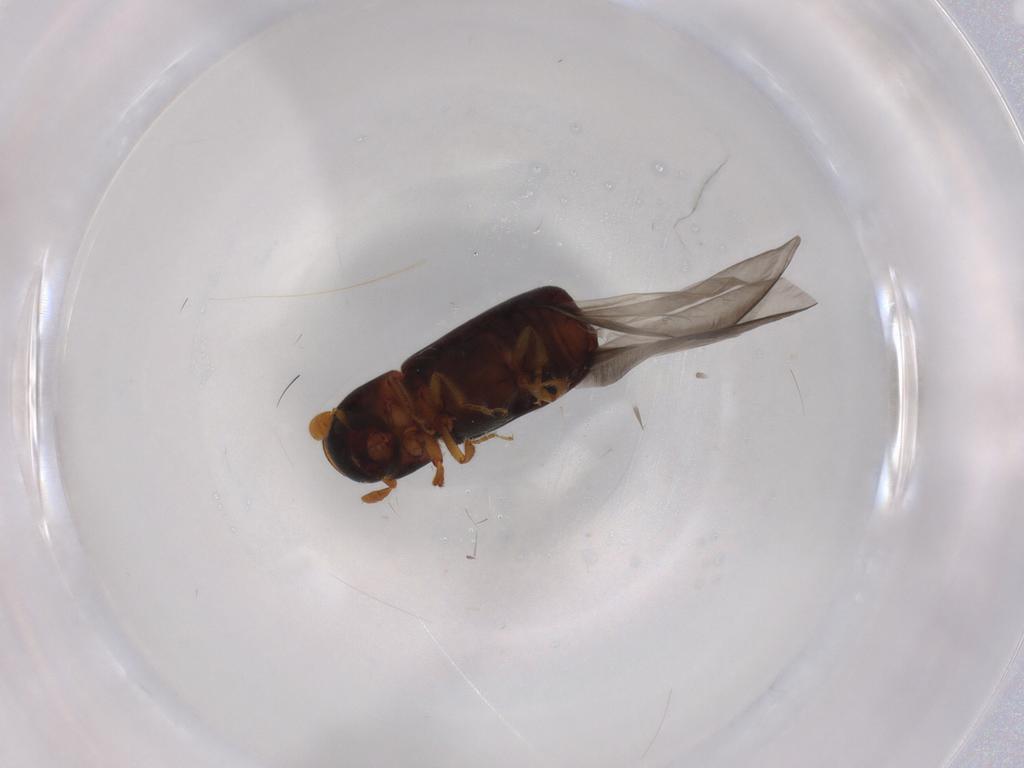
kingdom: Animalia
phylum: Arthropoda
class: Insecta
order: Coleoptera
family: Curculionidae
